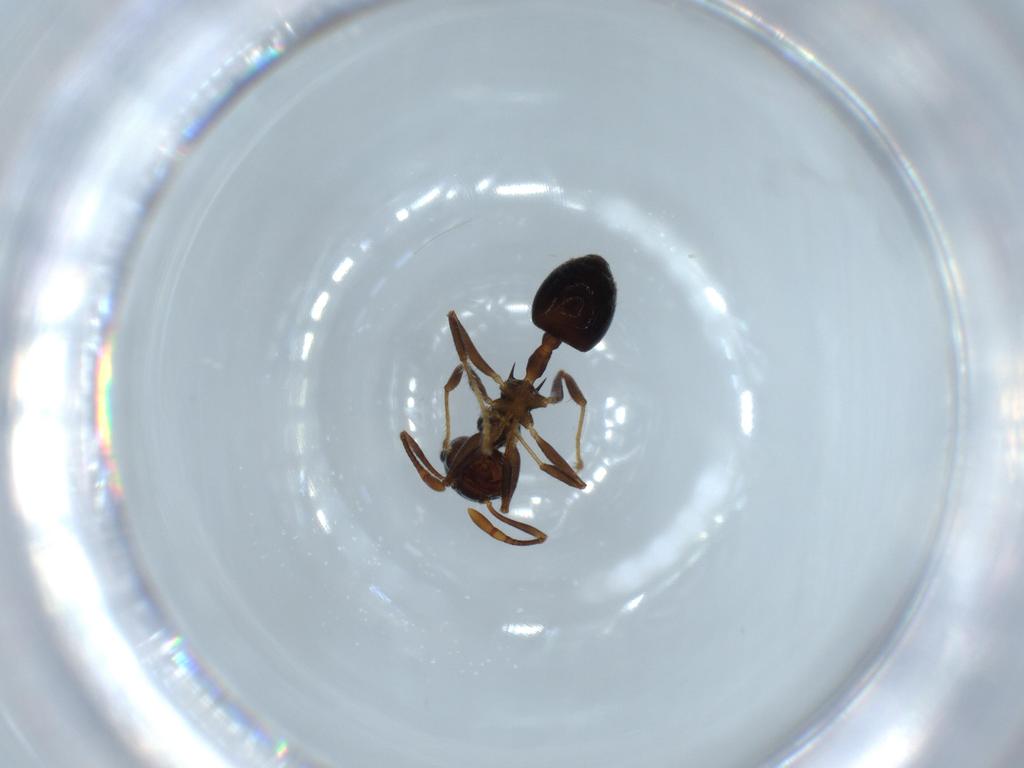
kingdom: Animalia
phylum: Arthropoda
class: Insecta
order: Hymenoptera
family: Formicidae
